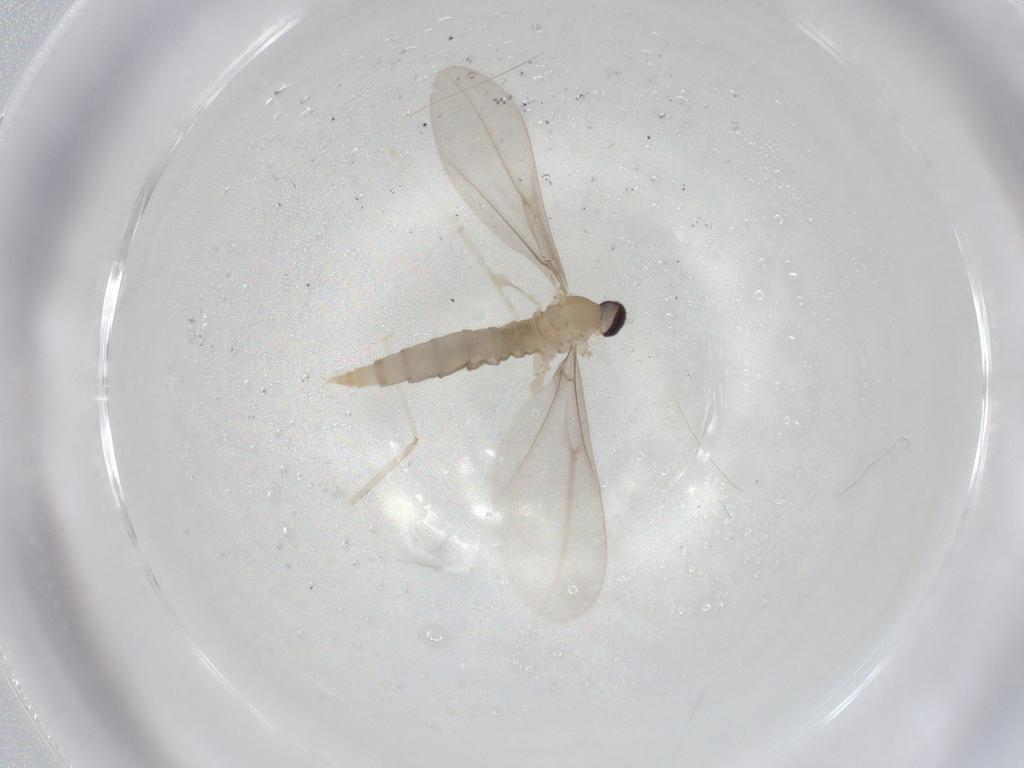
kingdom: Animalia
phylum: Arthropoda
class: Insecta
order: Diptera
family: Cecidomyiidae
